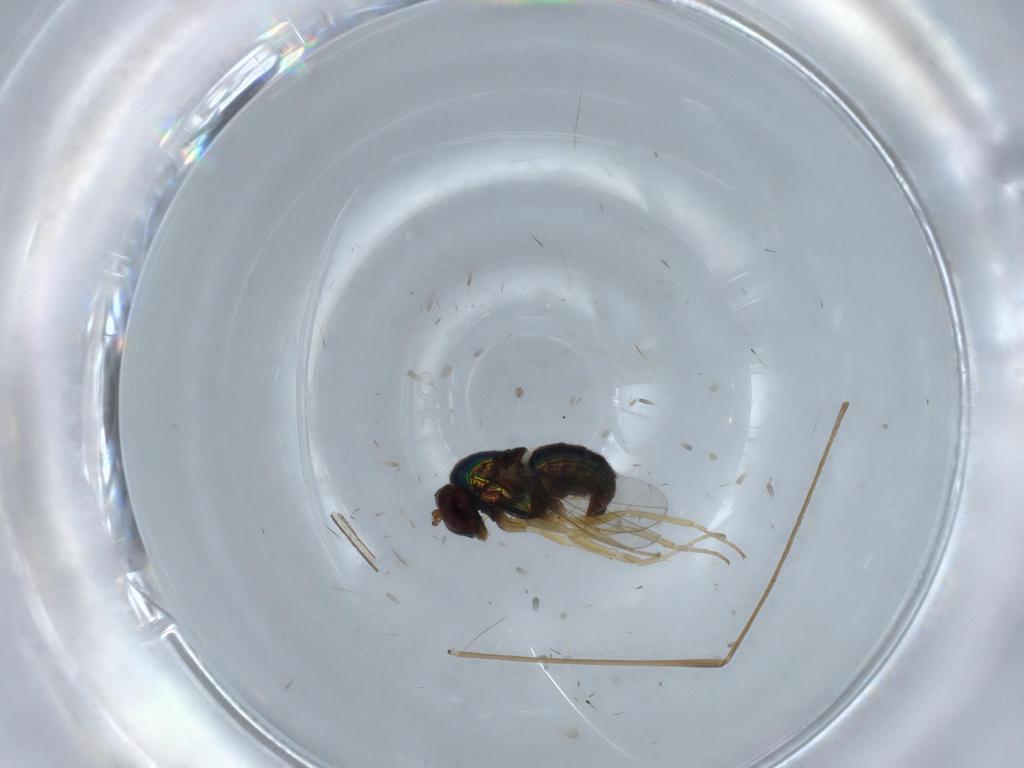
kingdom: Animalia
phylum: Arthropoda
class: Insecta
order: Diptera
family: Dolichopodidae
